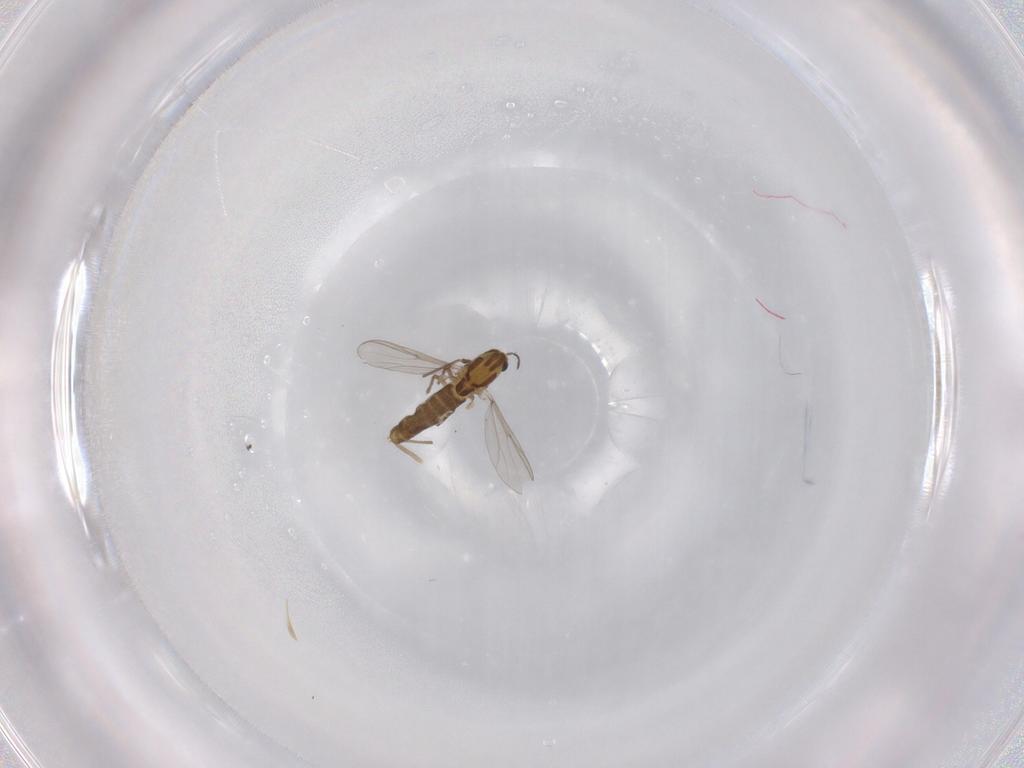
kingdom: Animalia
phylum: Arthropoda
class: Insecta
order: Diptera
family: Chironomidae
